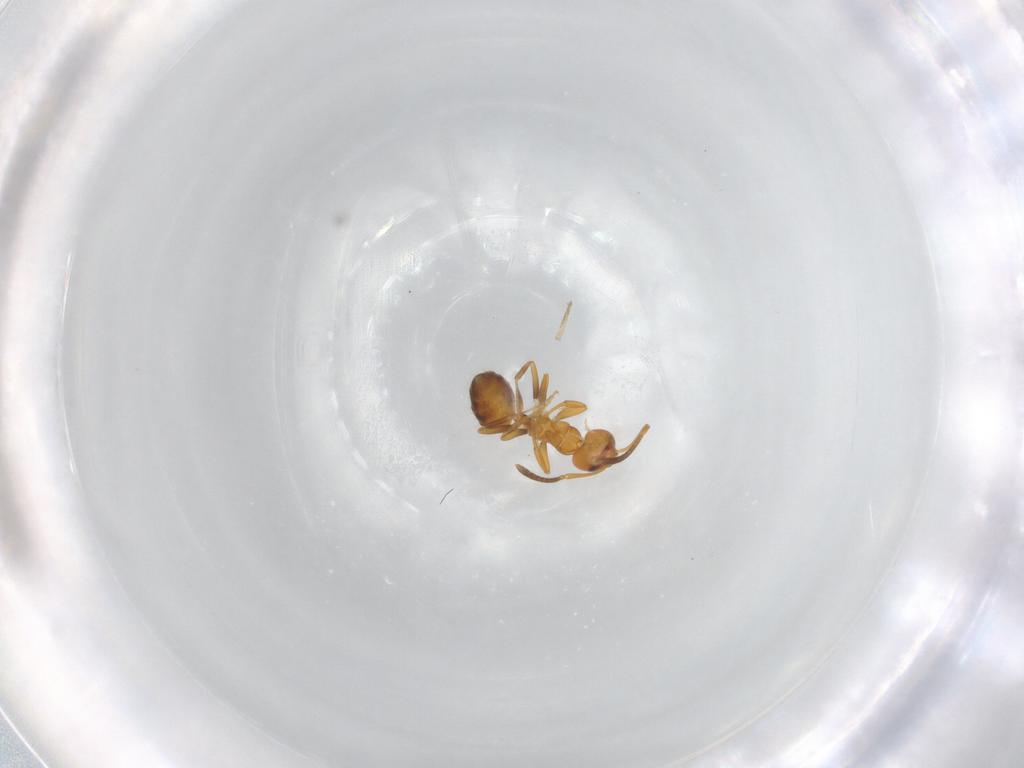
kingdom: Animalia
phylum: Arthropoda
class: Insecta
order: Hymenoptera
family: Formicidae
